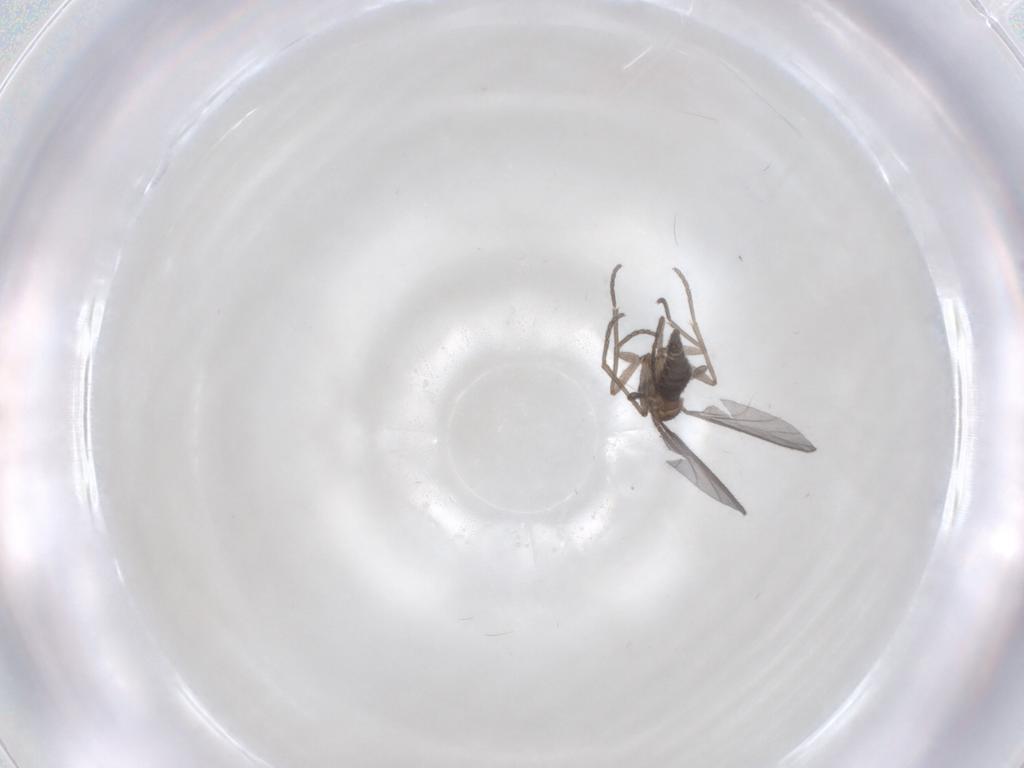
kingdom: Animalia
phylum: Arthropoda
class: Insecta
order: Diptera
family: Sciaridae
